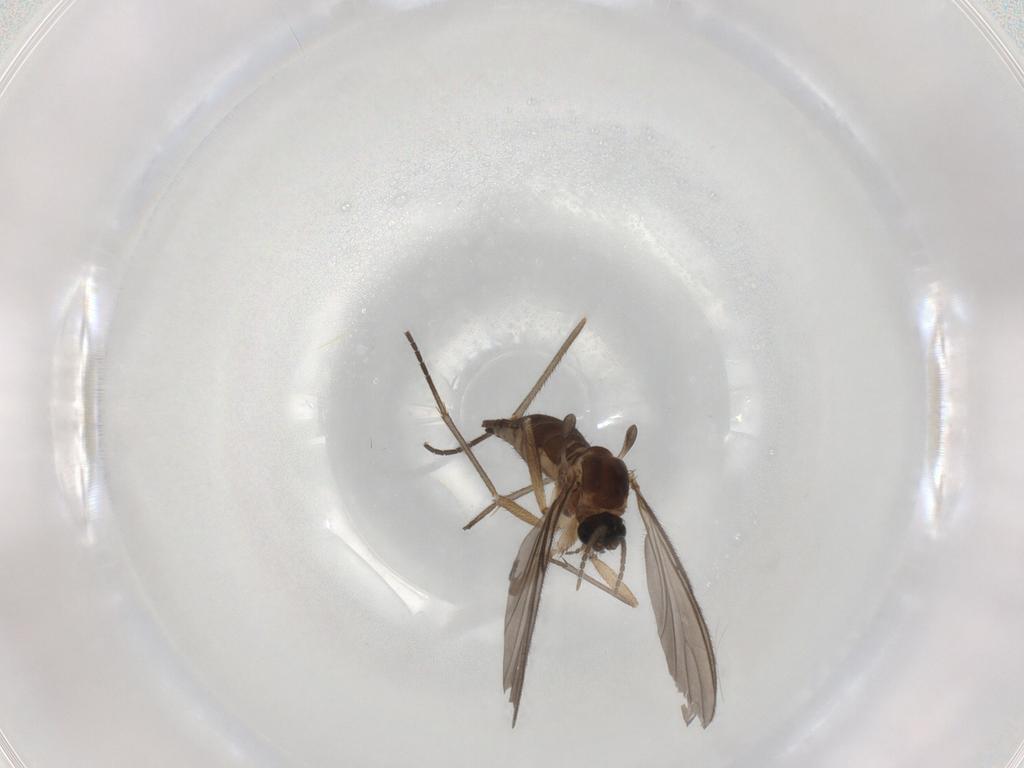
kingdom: Animalia
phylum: Arthropoda
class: Insecta
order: Diptera
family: Sciaridae
